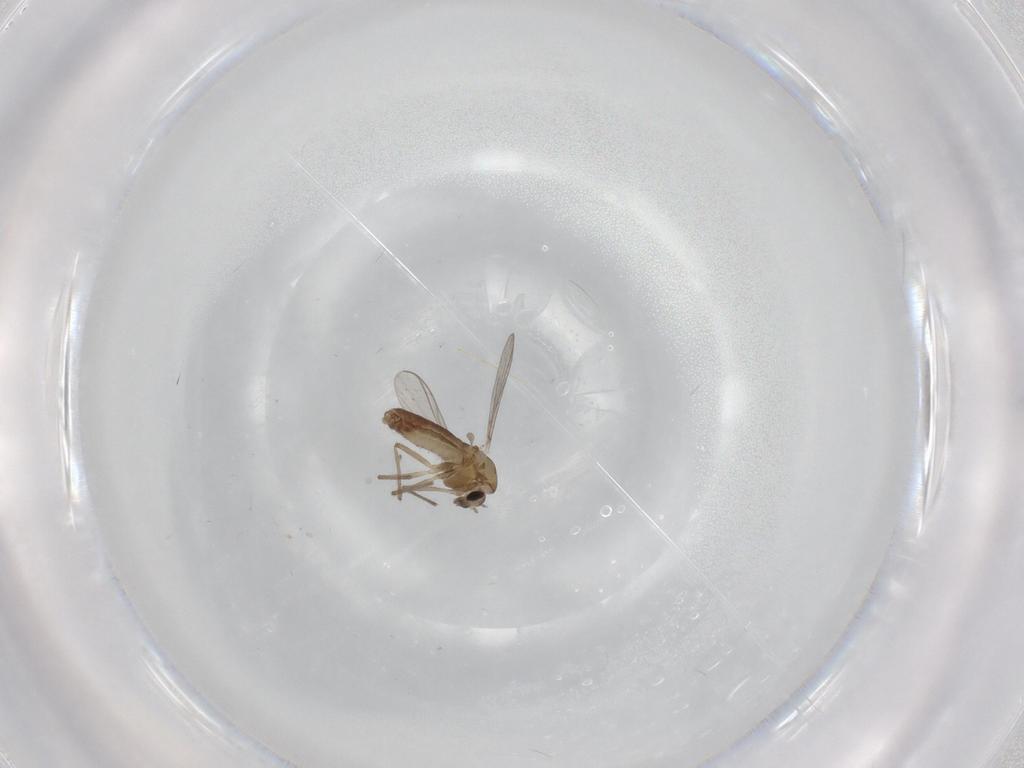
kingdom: Animalia
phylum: Arthropoda
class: Insecta
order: Diptera
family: Chironomidae
